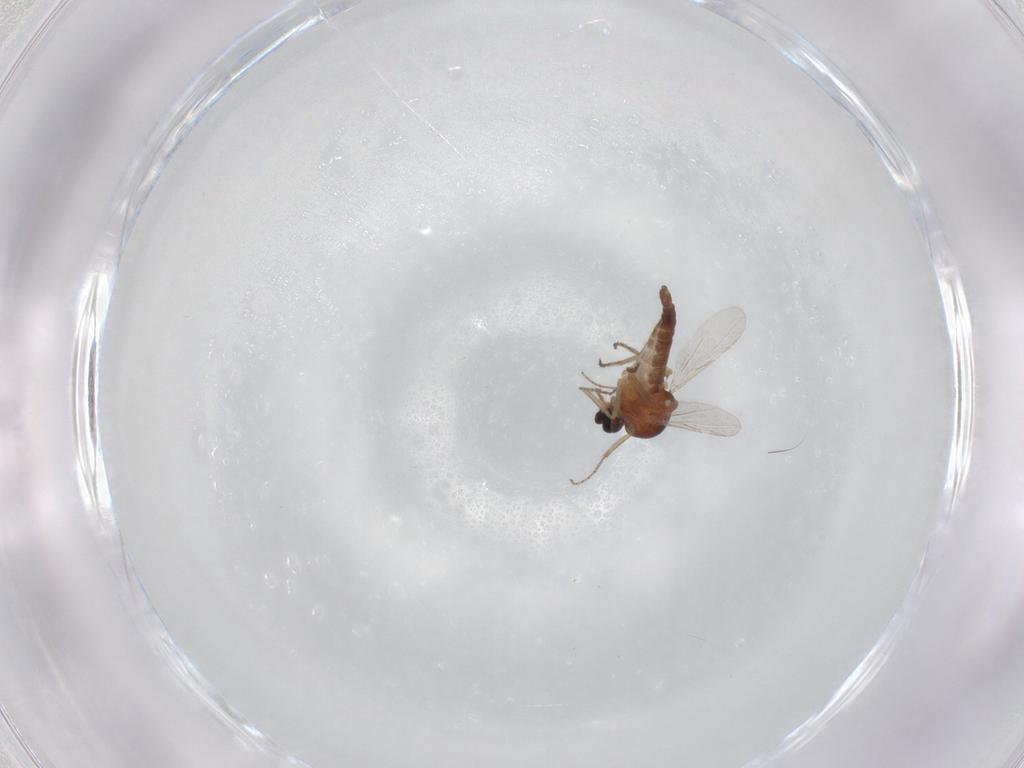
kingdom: Animalia
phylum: Arthropoda
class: Insecta
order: Diptera
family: Ceratopogonidae
